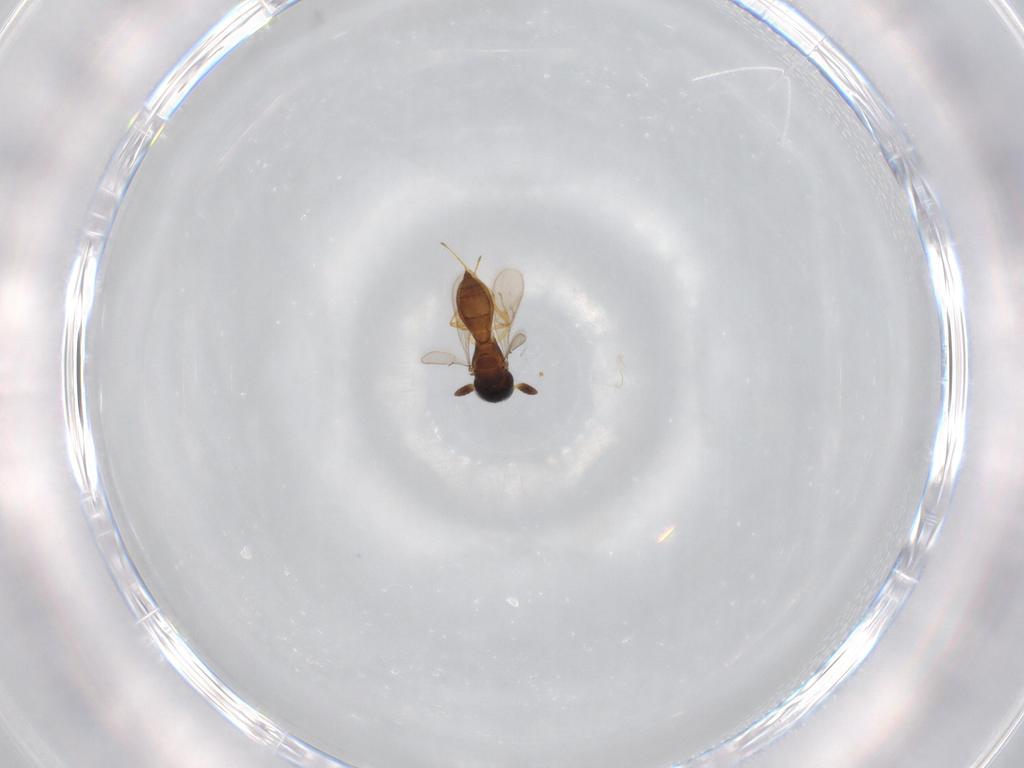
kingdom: Animalia
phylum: Arthropoda
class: Insecta
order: Hymenoptera
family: Scelionidae
